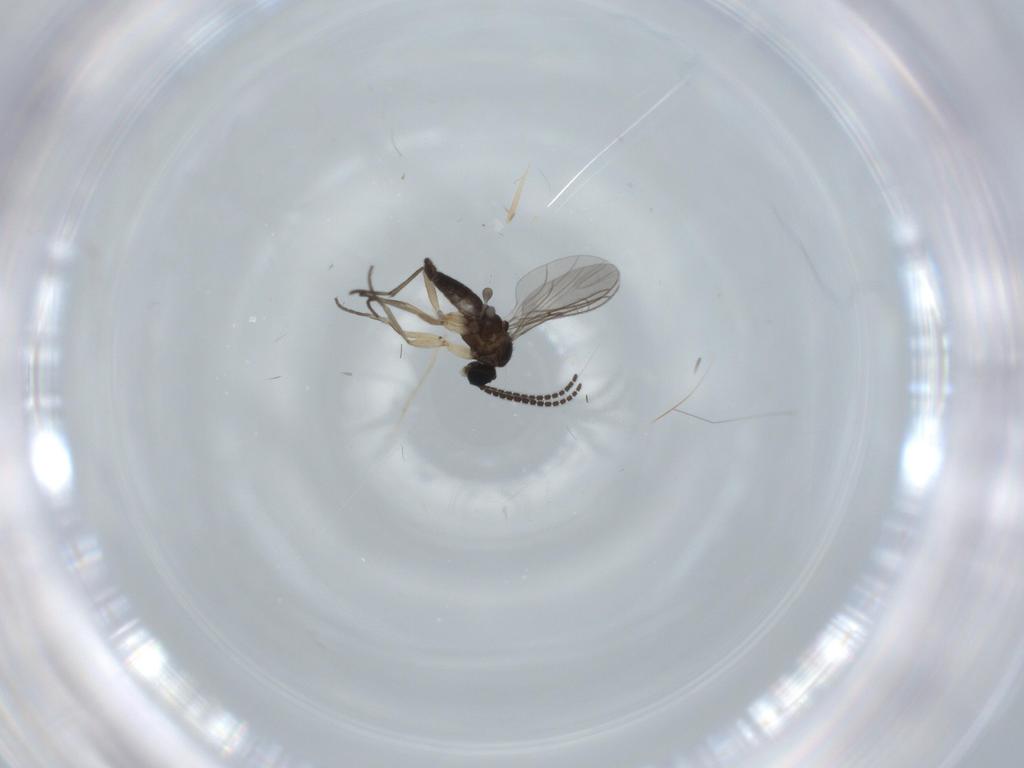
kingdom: Animalia
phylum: Arthropoda
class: Insecta
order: Diptera
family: Sciaridae
